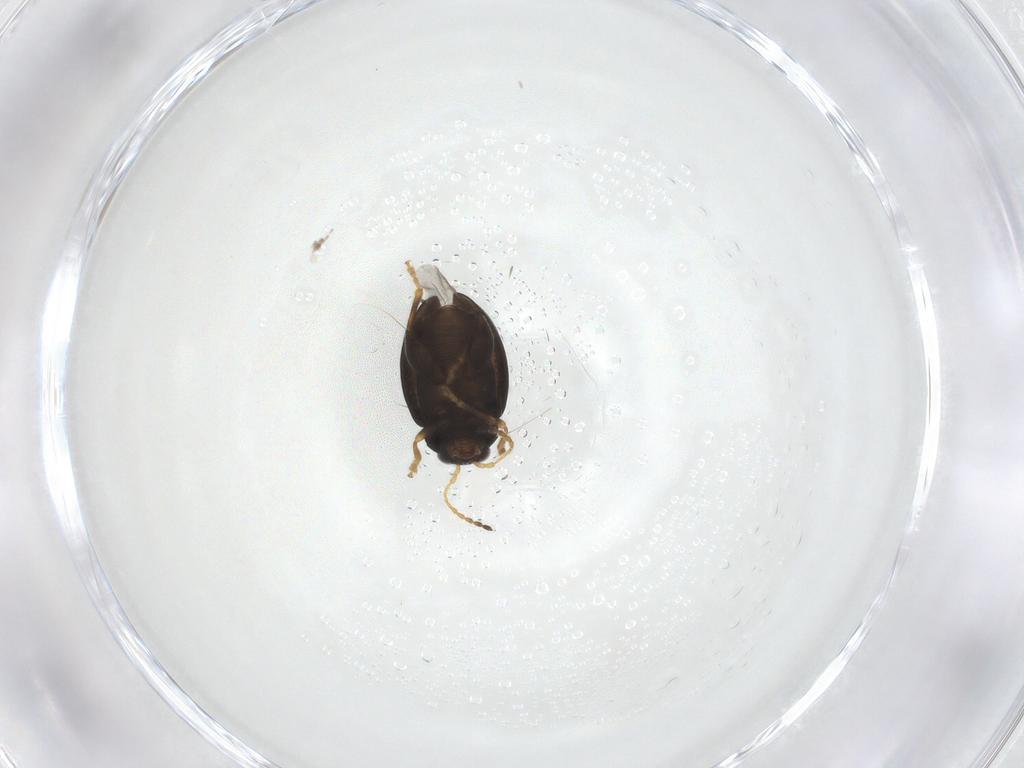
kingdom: Animalia
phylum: Arthropoda
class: Insecta
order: Coleoptera
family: Chrysomelidae
